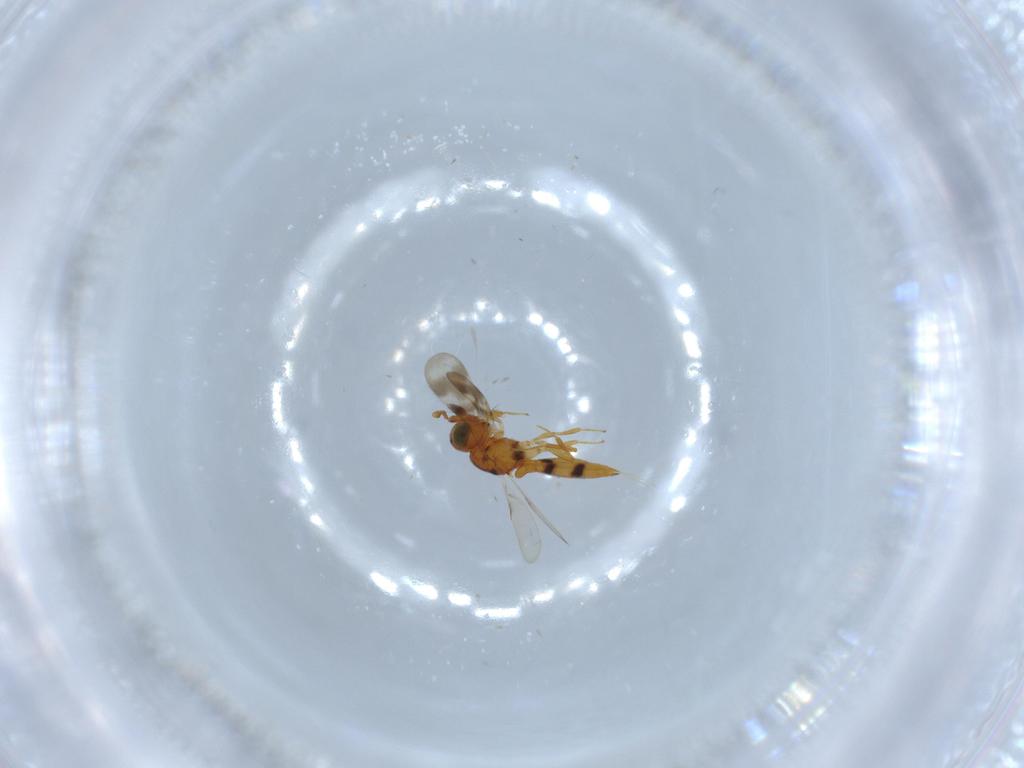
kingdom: Animalia
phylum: Arthropoda
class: Insecta
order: Hymenoptera
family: Scelionidae
